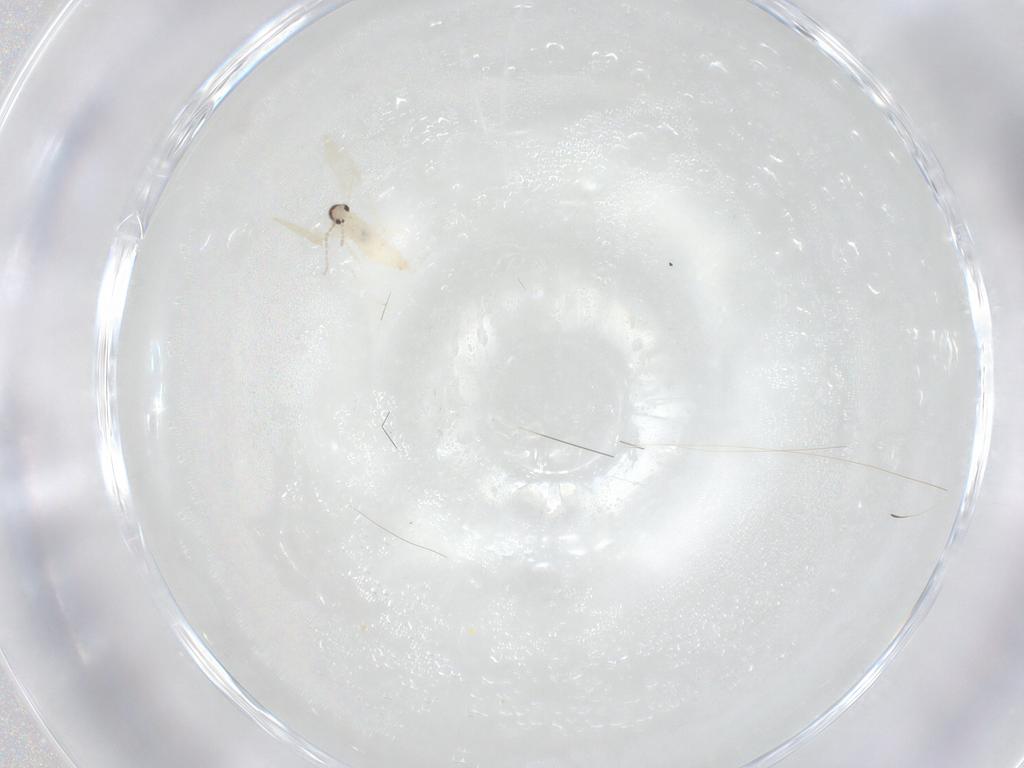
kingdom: Animalia
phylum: Arthropoda
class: Insecta
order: Diptera
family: Cecidomyiidae
